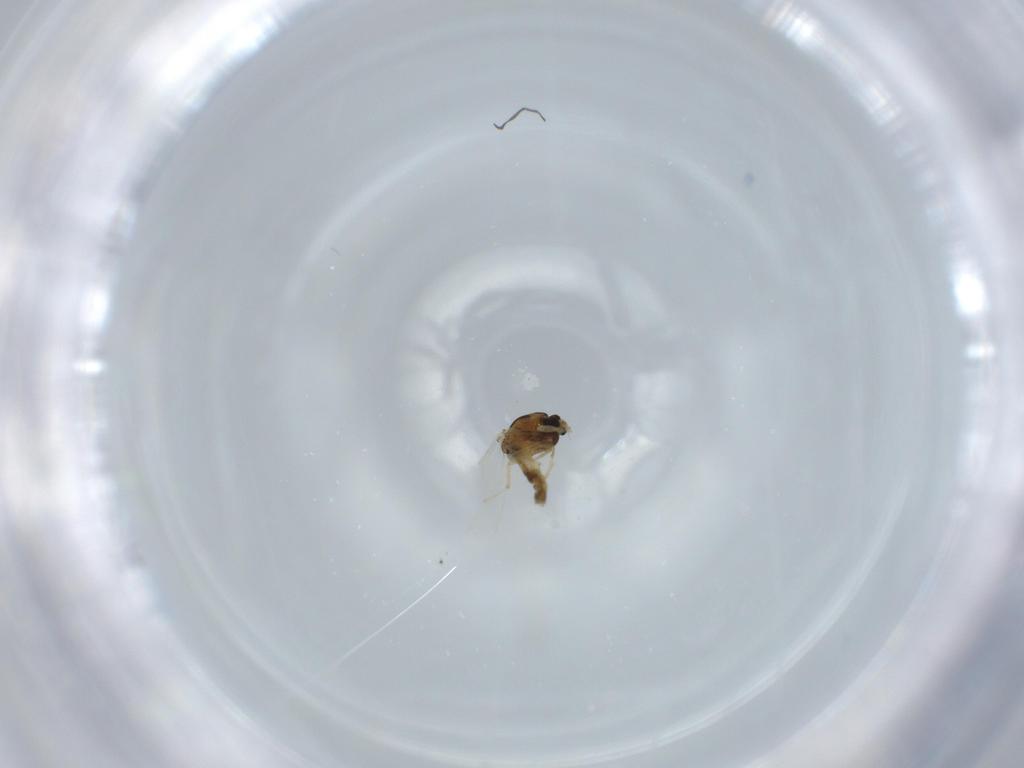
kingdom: Animalia
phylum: Arthropoda
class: Insecta
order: Diptera
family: Chironomidae
